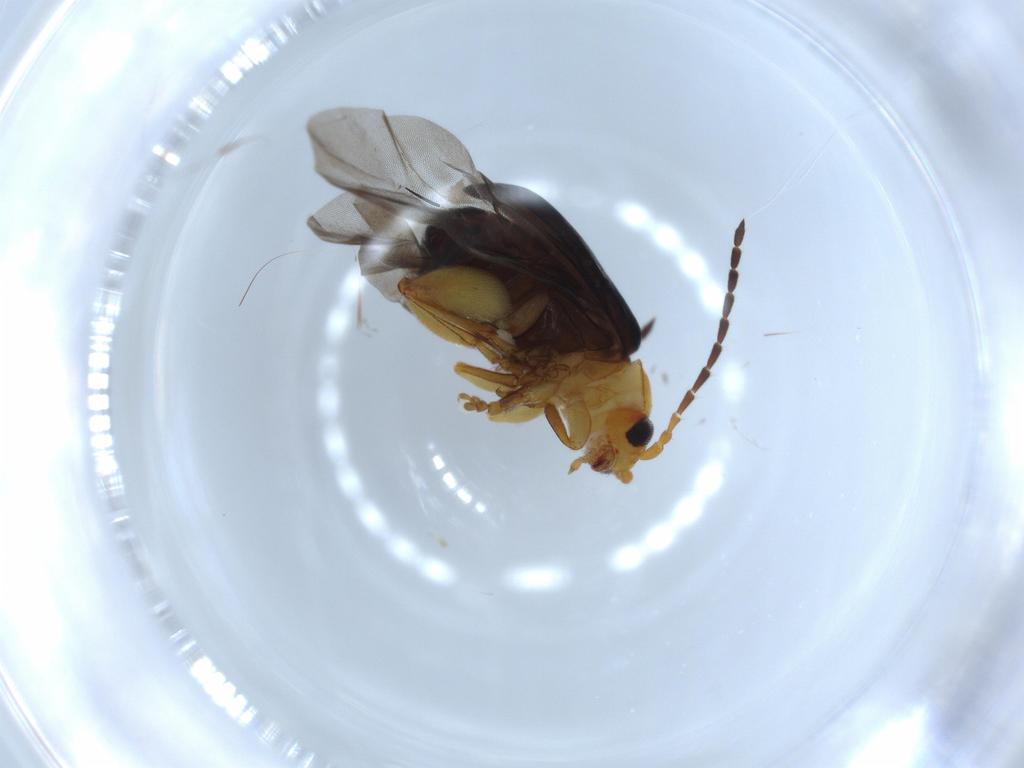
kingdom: Animalia
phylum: Arthropoda
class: Insecta
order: Coleoptera
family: Chrysomelidae
